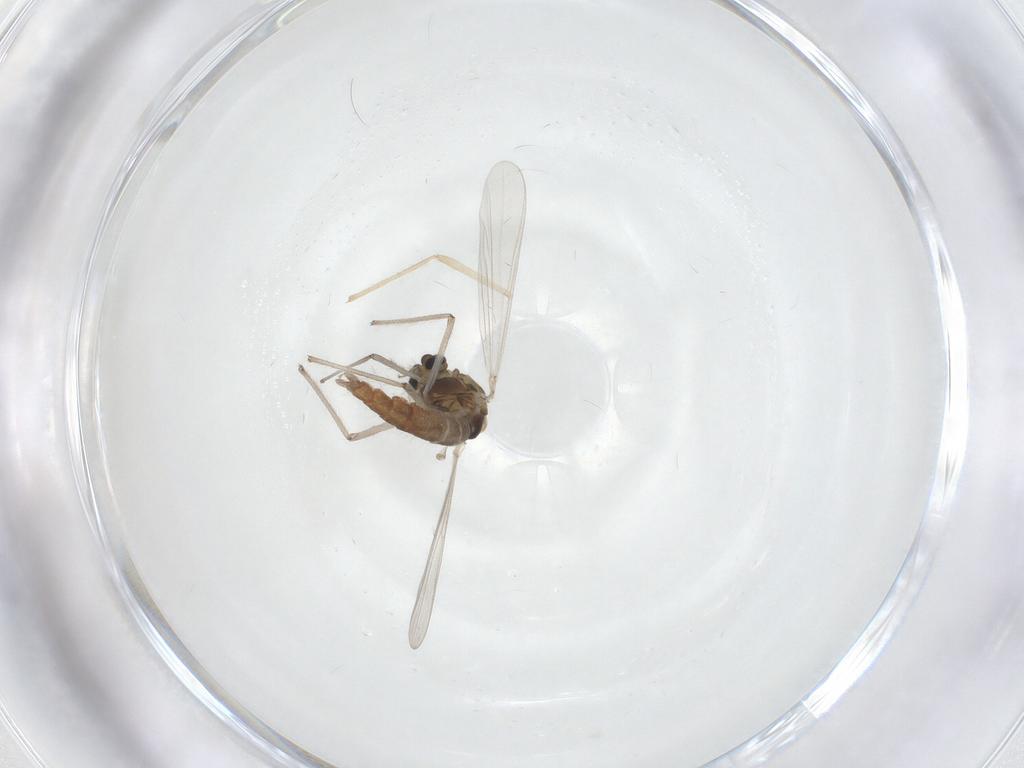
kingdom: Animalia
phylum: Arthropoda
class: Insecta
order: Diptera
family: Chironomidae
